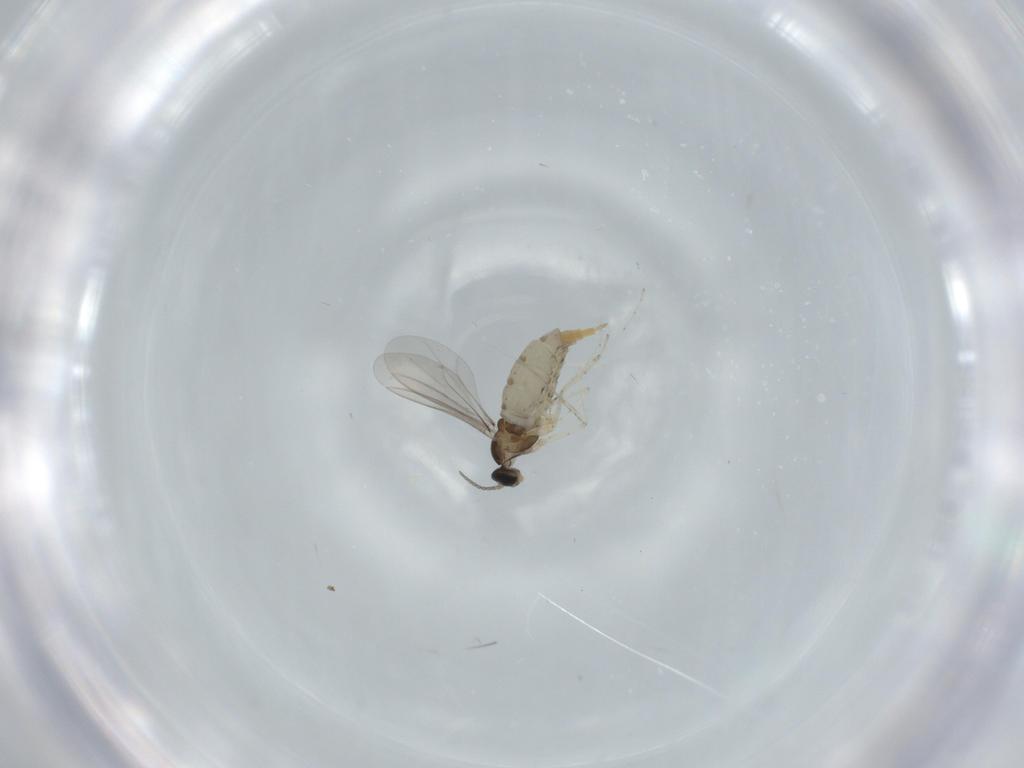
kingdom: Animalia
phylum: Arthropoda
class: Insecta
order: Diptera
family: Cecidomyiidae
